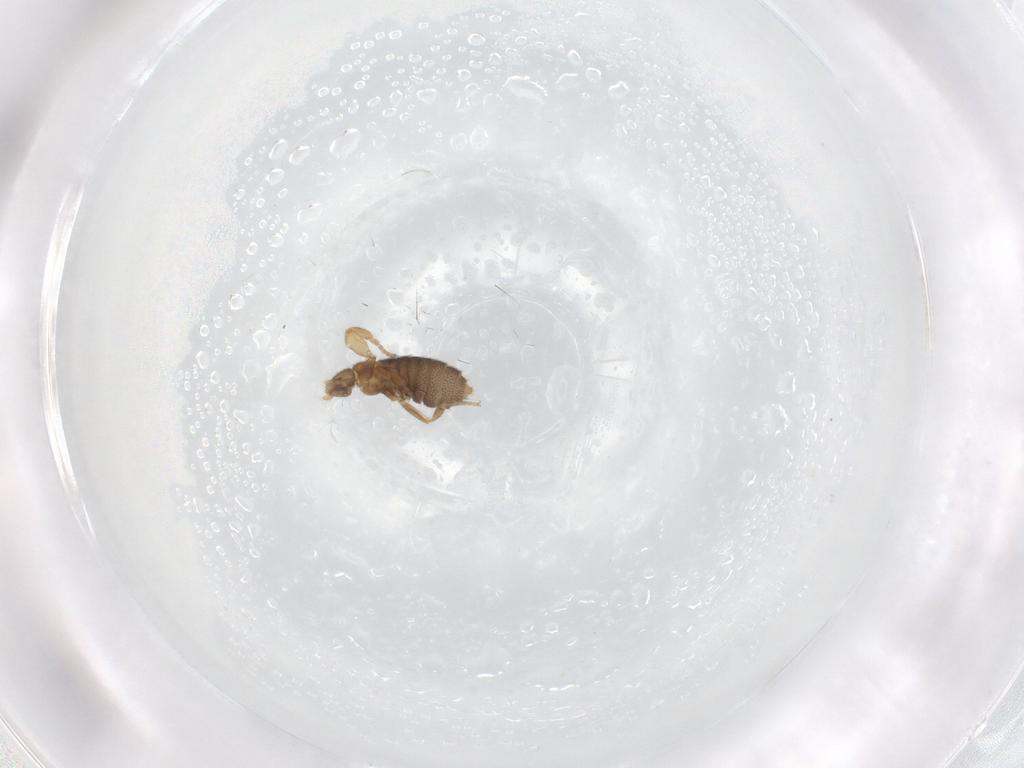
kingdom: Animalia
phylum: Arthropoda
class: Insecta
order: Diptera
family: Phoridae
